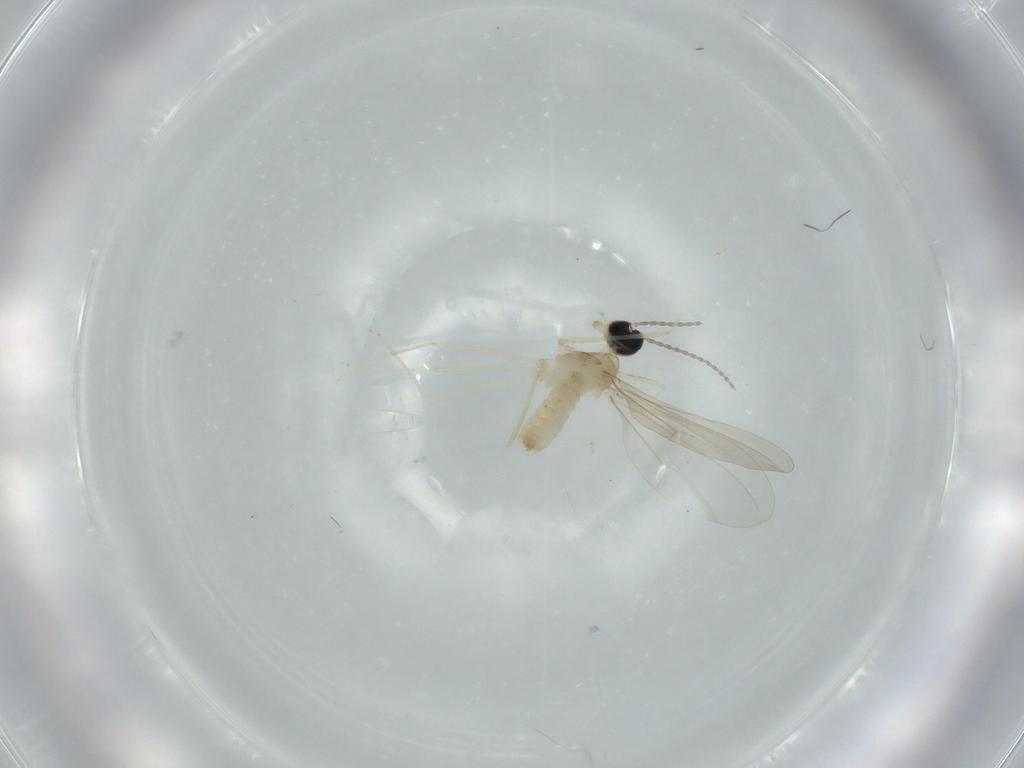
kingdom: Animalia
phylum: Arthropoda
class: Insecta
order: Diptera
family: Cecidomyiidae
